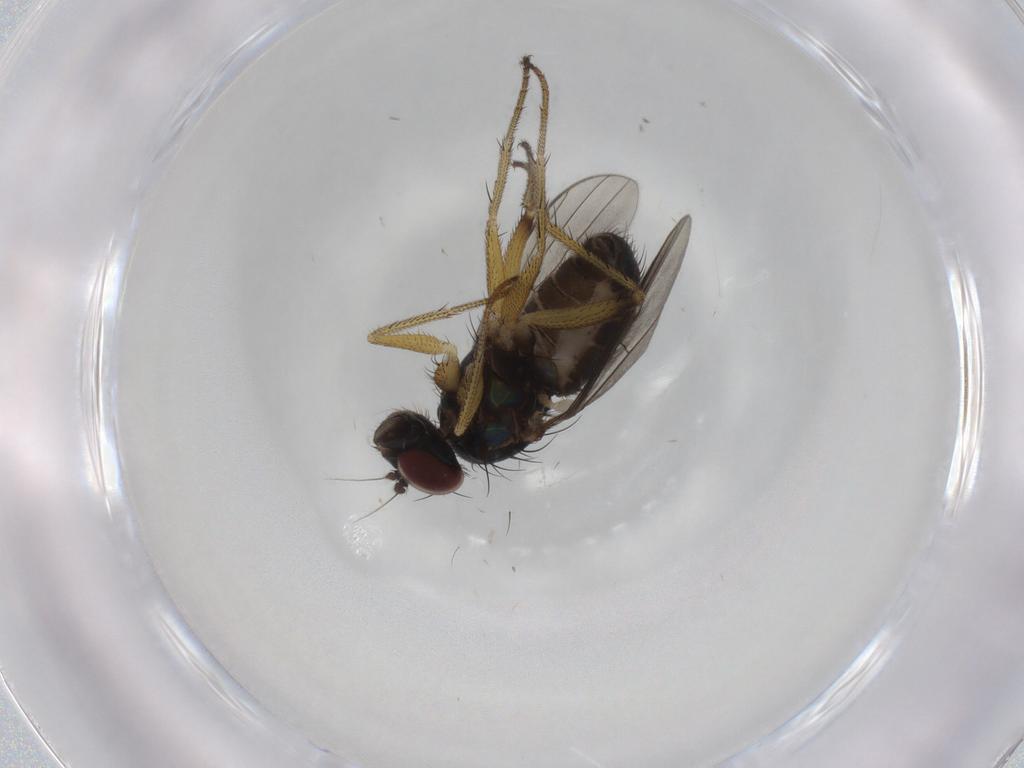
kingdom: Animalia
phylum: Arthropoda
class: Insecta
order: Diptera
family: Dolichopodidae
